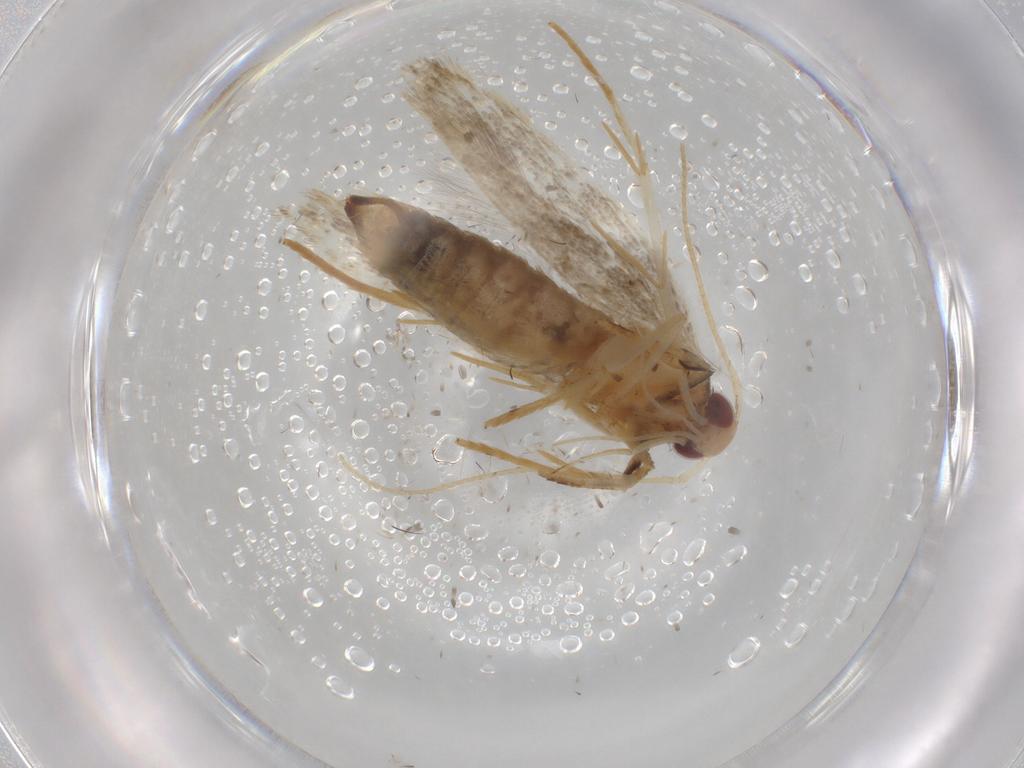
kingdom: Animalia
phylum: Arthropoda
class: Insecta
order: Lepidoptera
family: Cosmopterigidae
